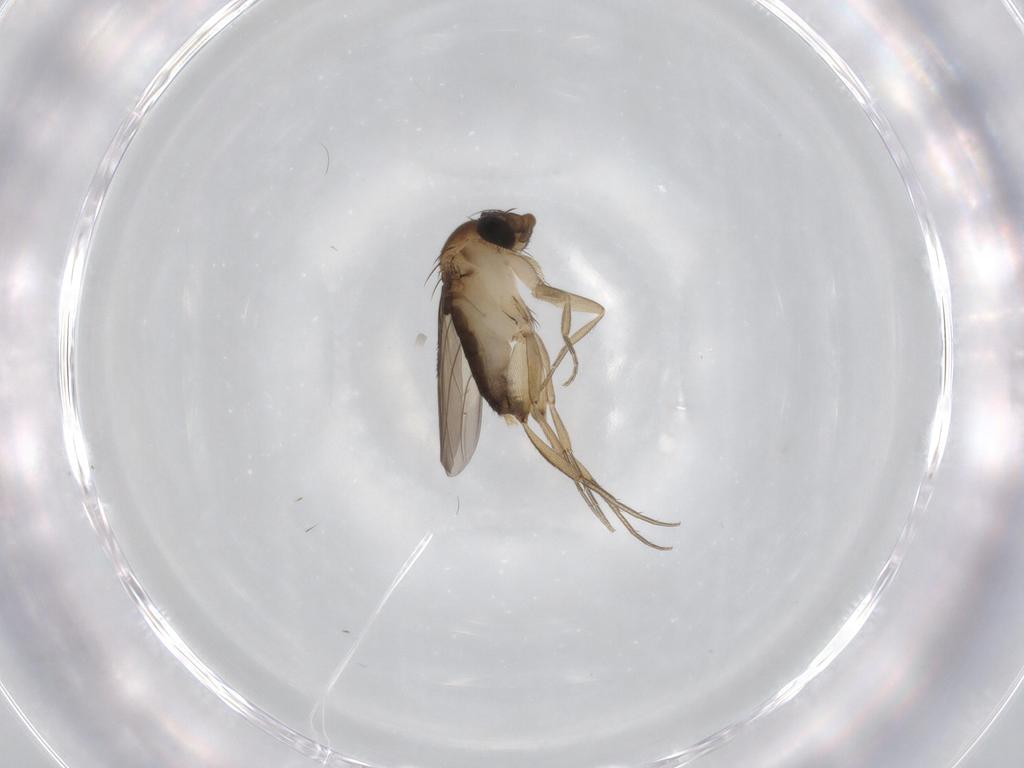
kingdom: Animalia
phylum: Arthropoda
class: Insecta
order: Diptera
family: Phoridae
